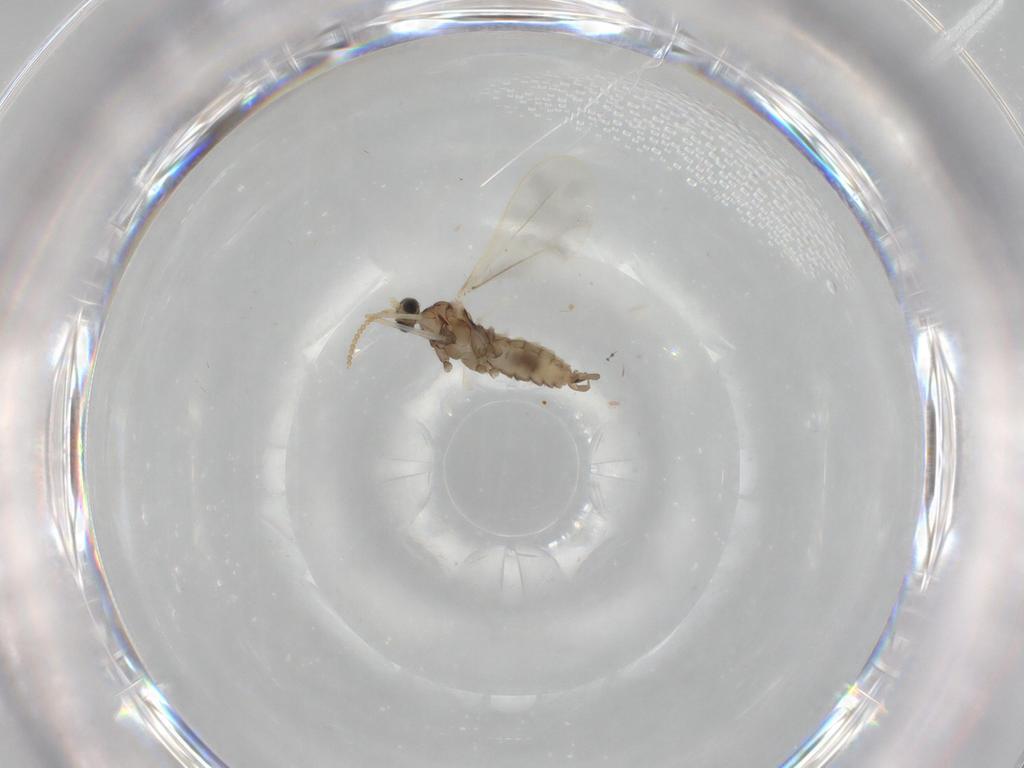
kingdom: Animalia
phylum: Arthropoda
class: Insecta
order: Diptera
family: Cecidomyiidae
